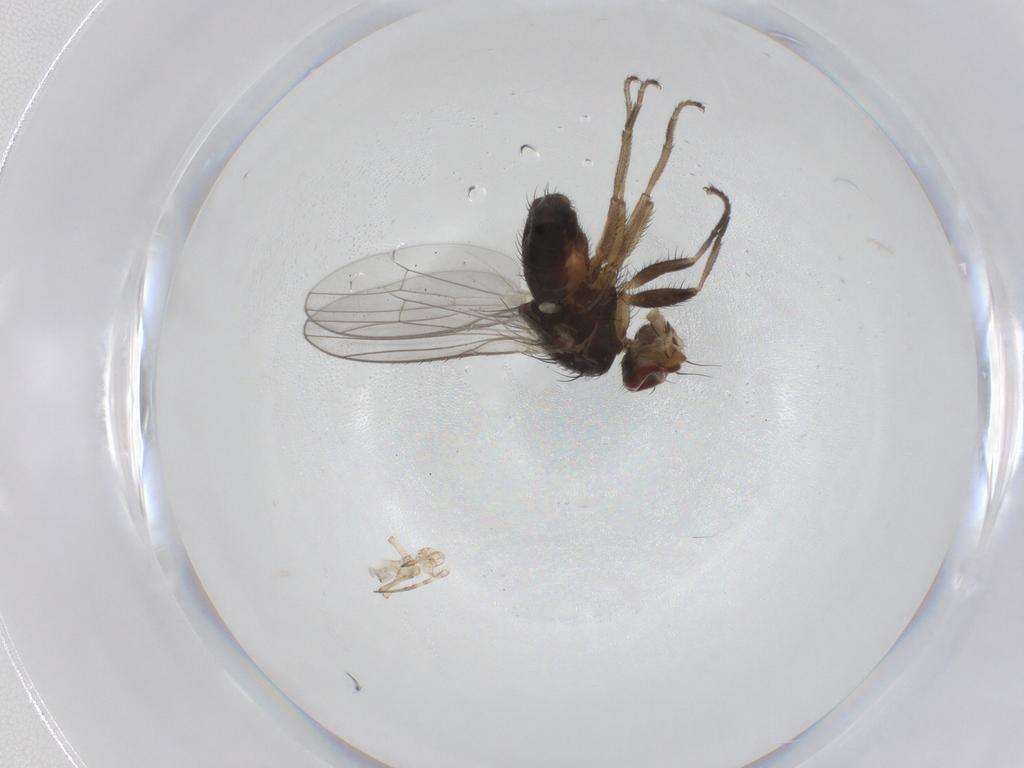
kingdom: Animalia
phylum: Arthropoda
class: Insecta
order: Diptera
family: Heleomyzidae
